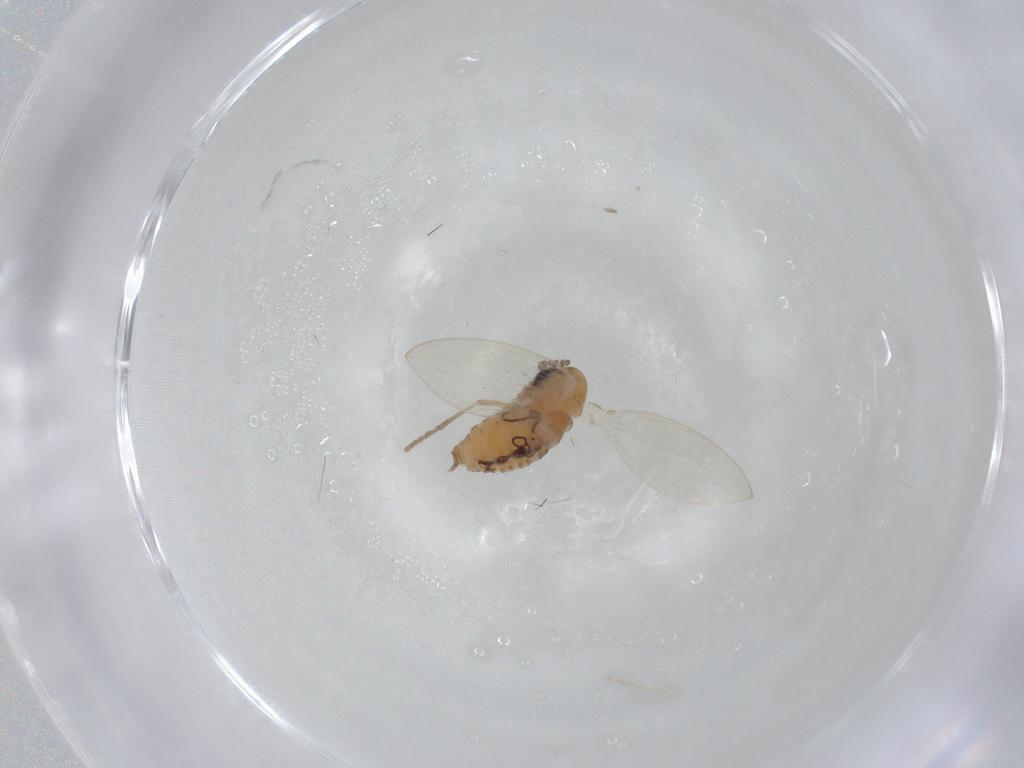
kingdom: Animalia
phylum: Arthropoda
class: Insecta
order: Diptera
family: Psychodidae
